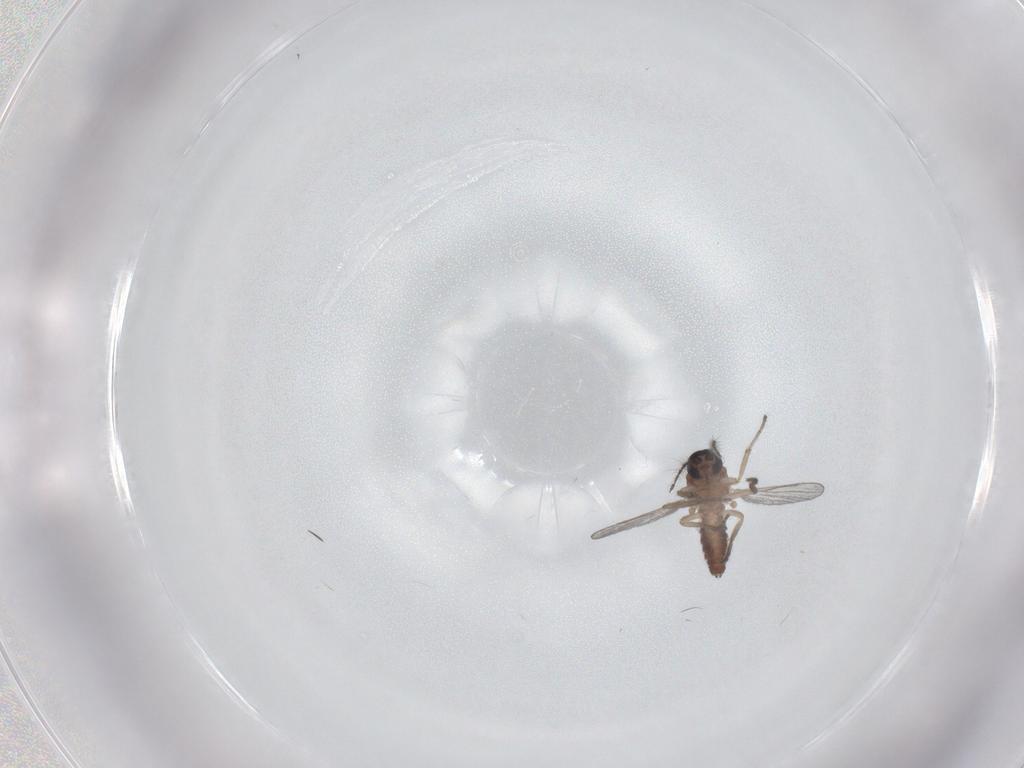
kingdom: Animalia
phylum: Arthropoda
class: Insecta
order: Diptera
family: Ceratopogonidae
